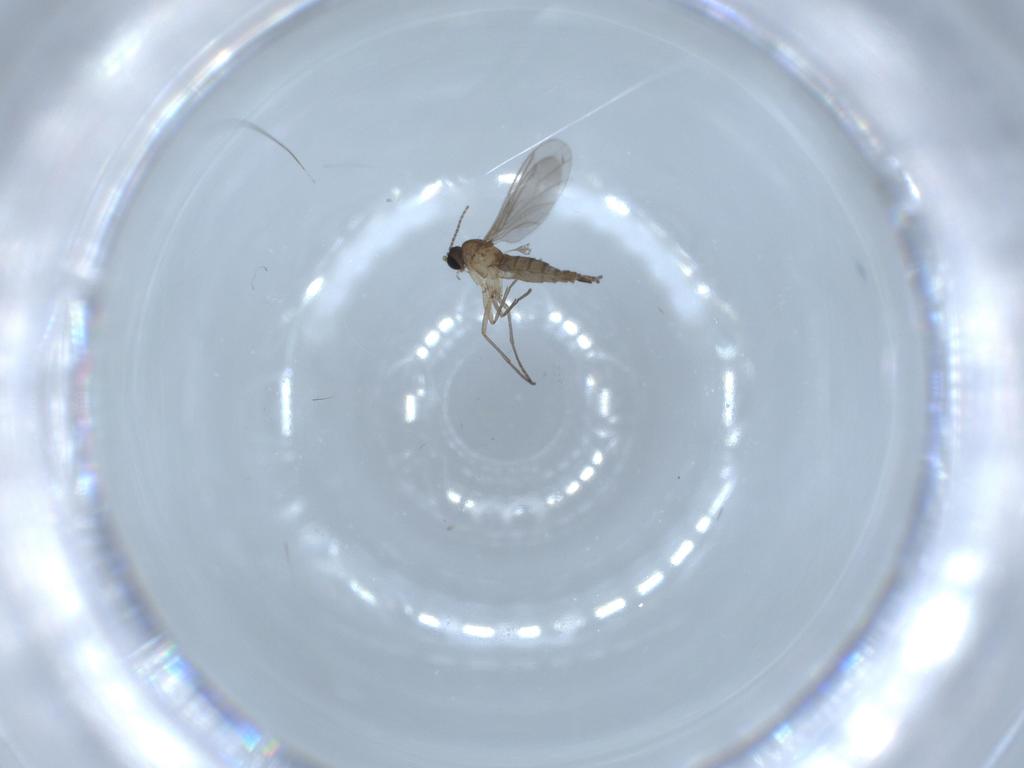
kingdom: Animalia
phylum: Arthropoda
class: Insecta
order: Diptera
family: Sciaridae
